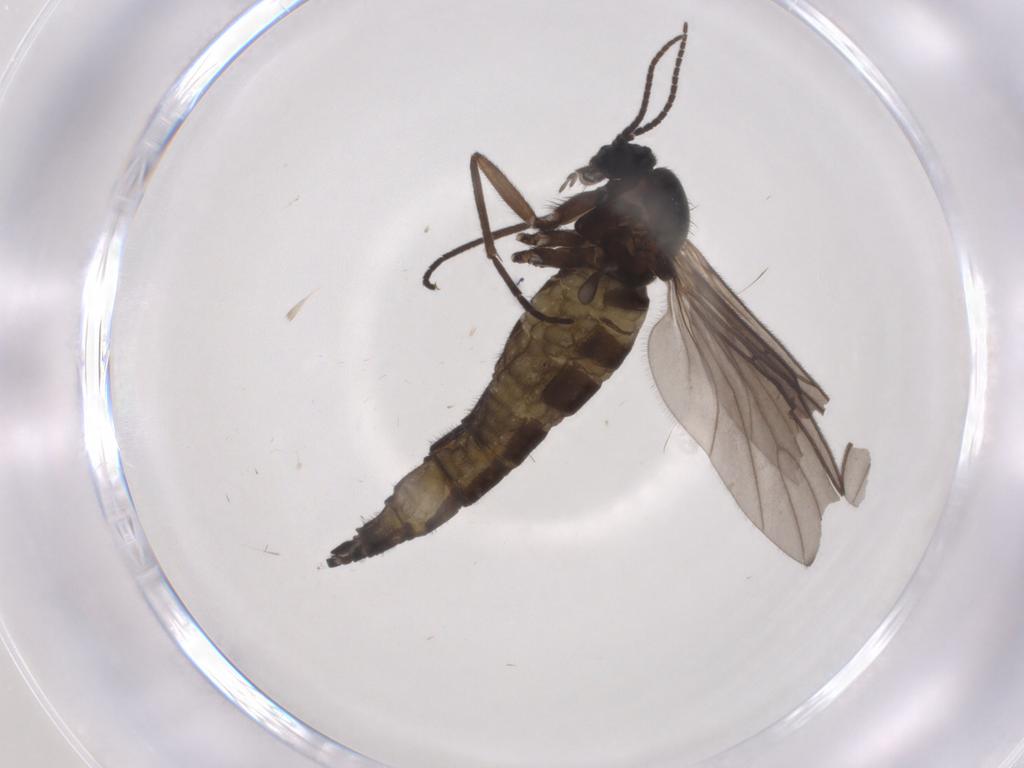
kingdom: Animalia
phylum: Arthropoda
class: Insecta
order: Diptera
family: Sciaridae
